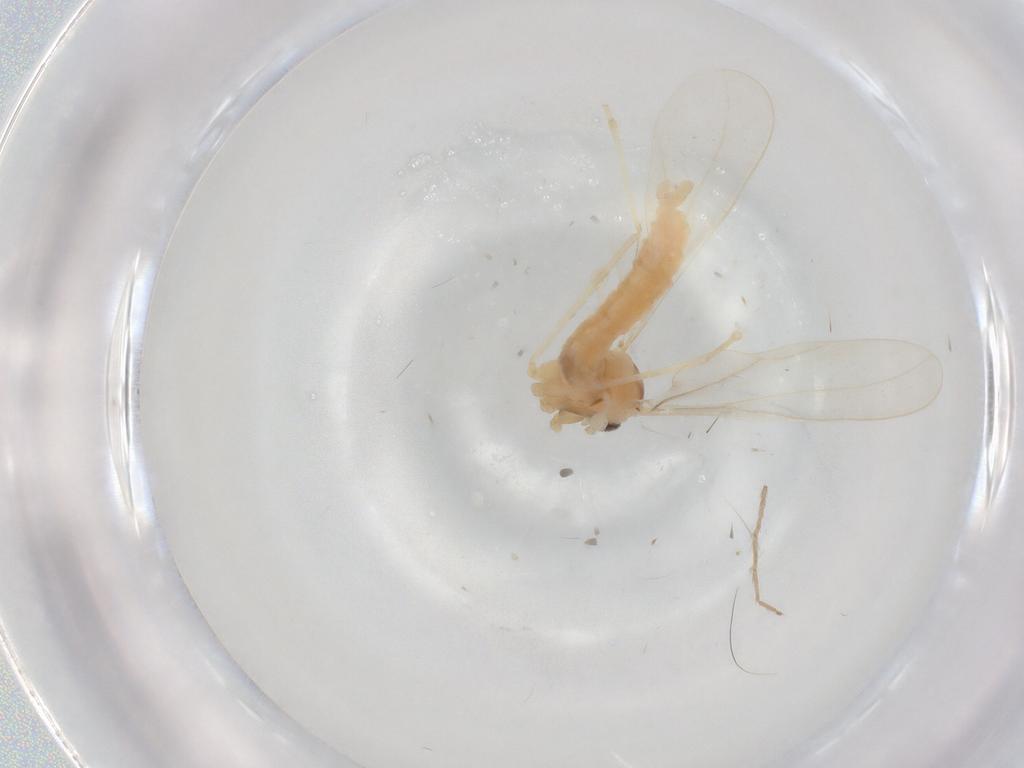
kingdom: Animalia
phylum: Arthropoda
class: Insecta
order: Diptera
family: Cecidomyiidae
